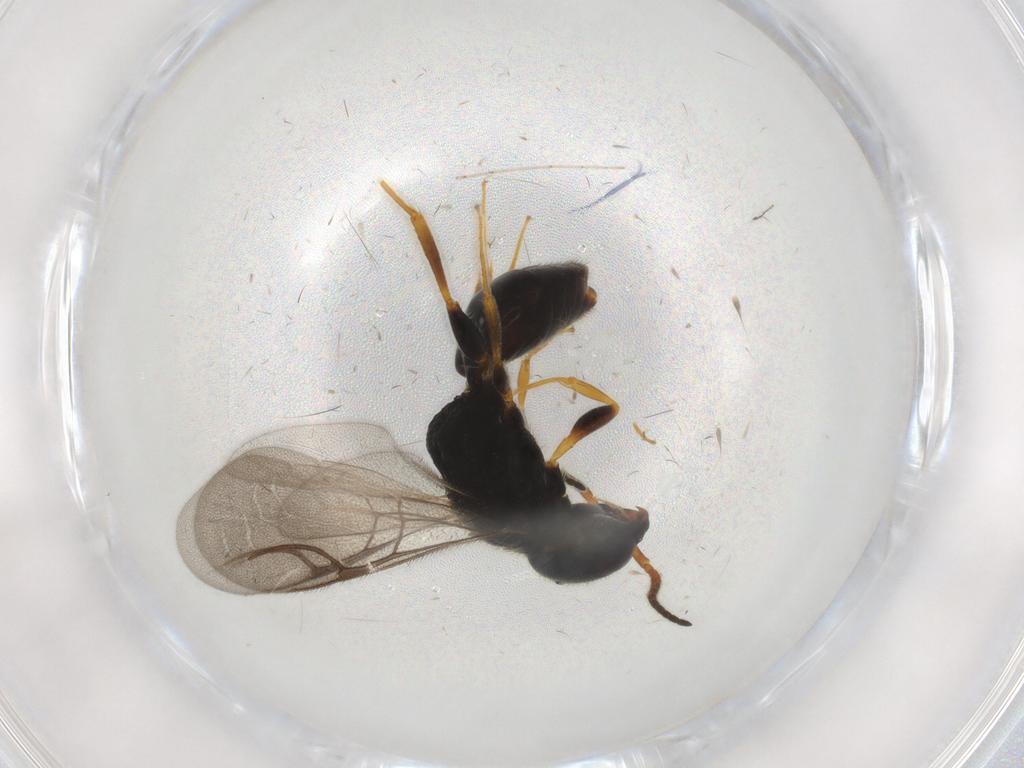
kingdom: Animalia
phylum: Arthropoda
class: Insecta
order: Hymenoptera
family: Bethylidae
